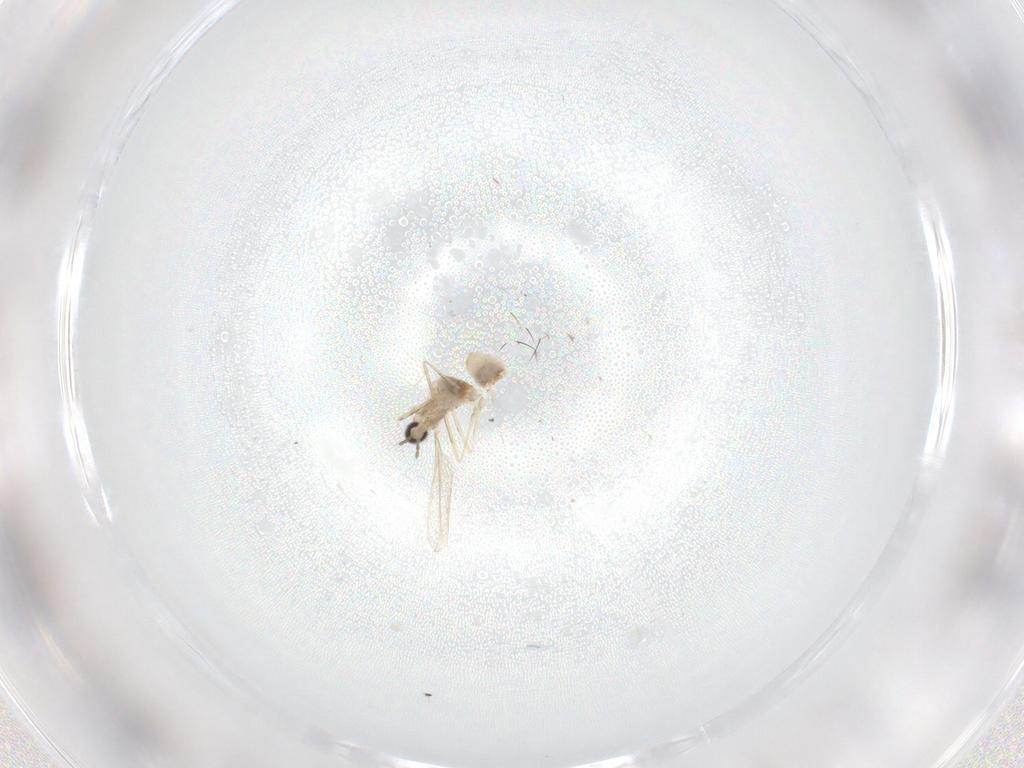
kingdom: Animalia
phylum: Arthropoda
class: Insecta
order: Diptera
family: Cecidomyiidae
